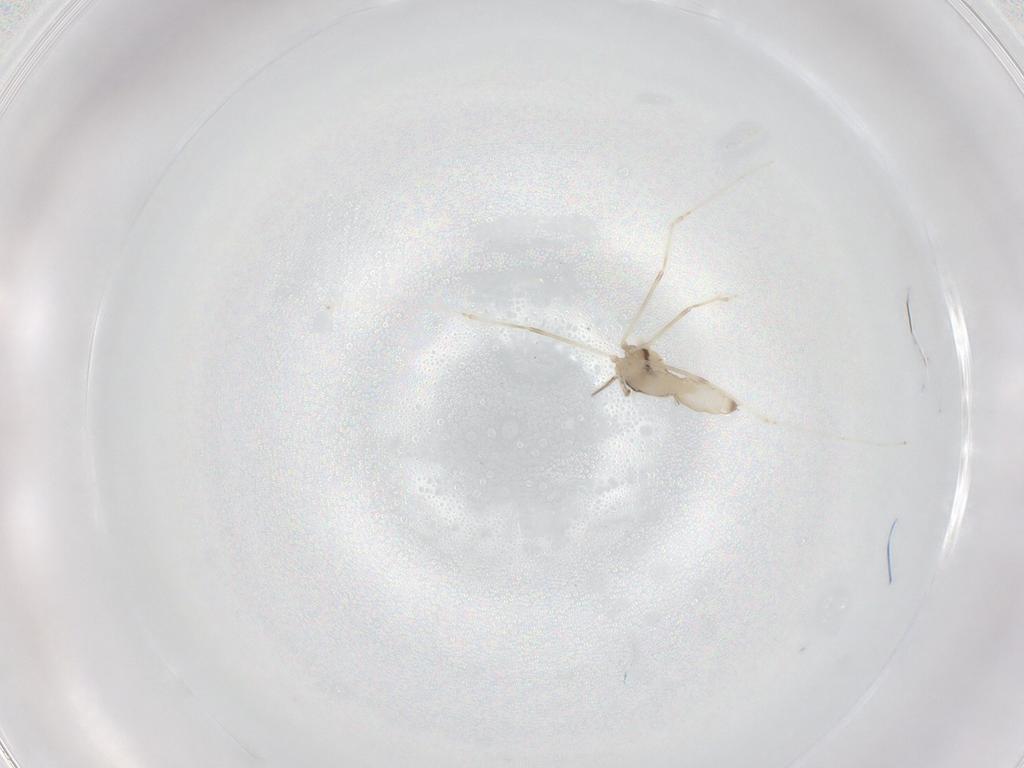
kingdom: Animalia
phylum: Arthropoda
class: Insecta
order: Diptera
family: Cecidomyiidae
